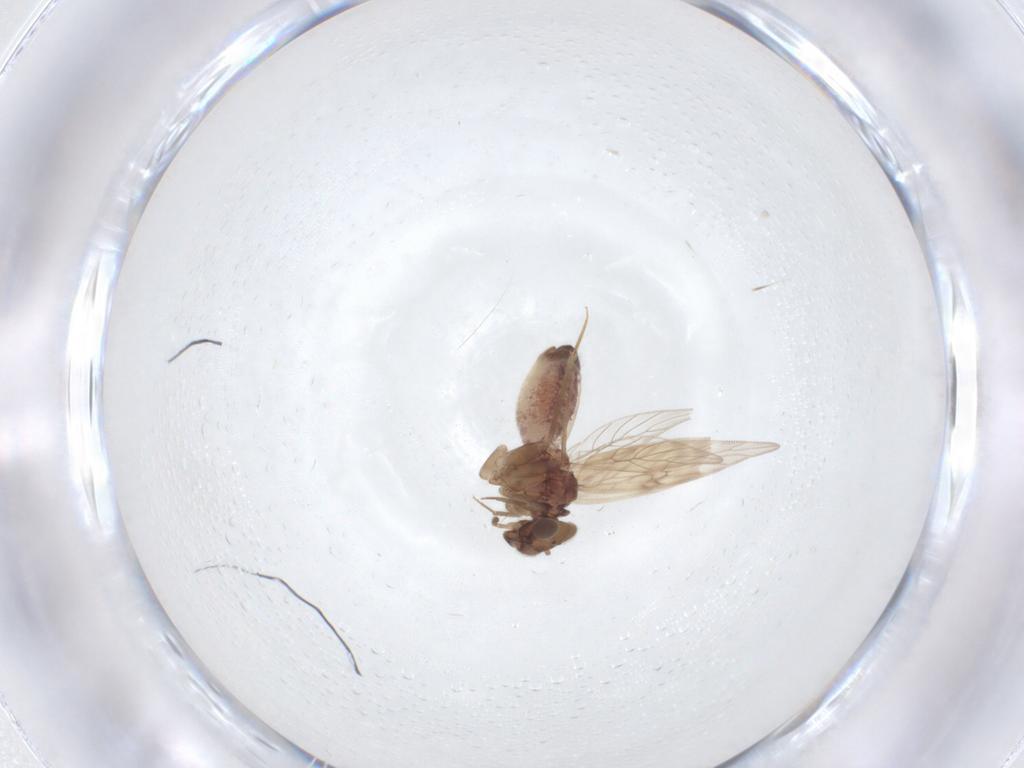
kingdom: Animalia
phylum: Arthropoda
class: Insecta
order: Psocodea
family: Lepidopsocidae
